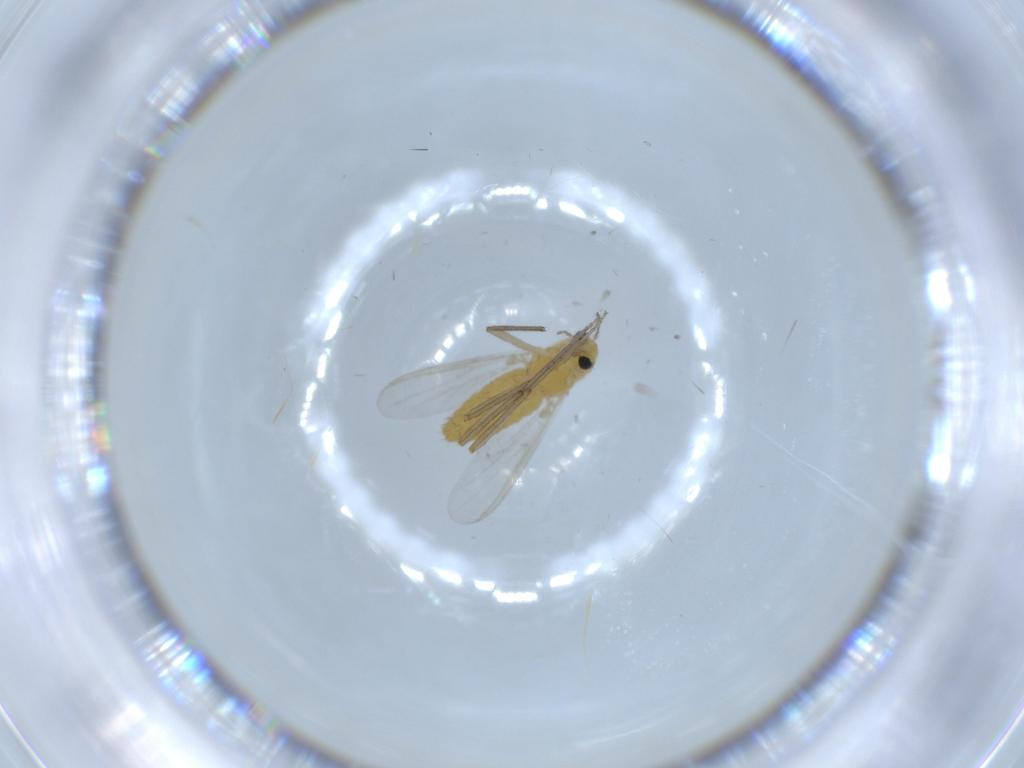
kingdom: Animalia
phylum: Arthropoda
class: Insecta
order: Diptera
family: Chironomidae
